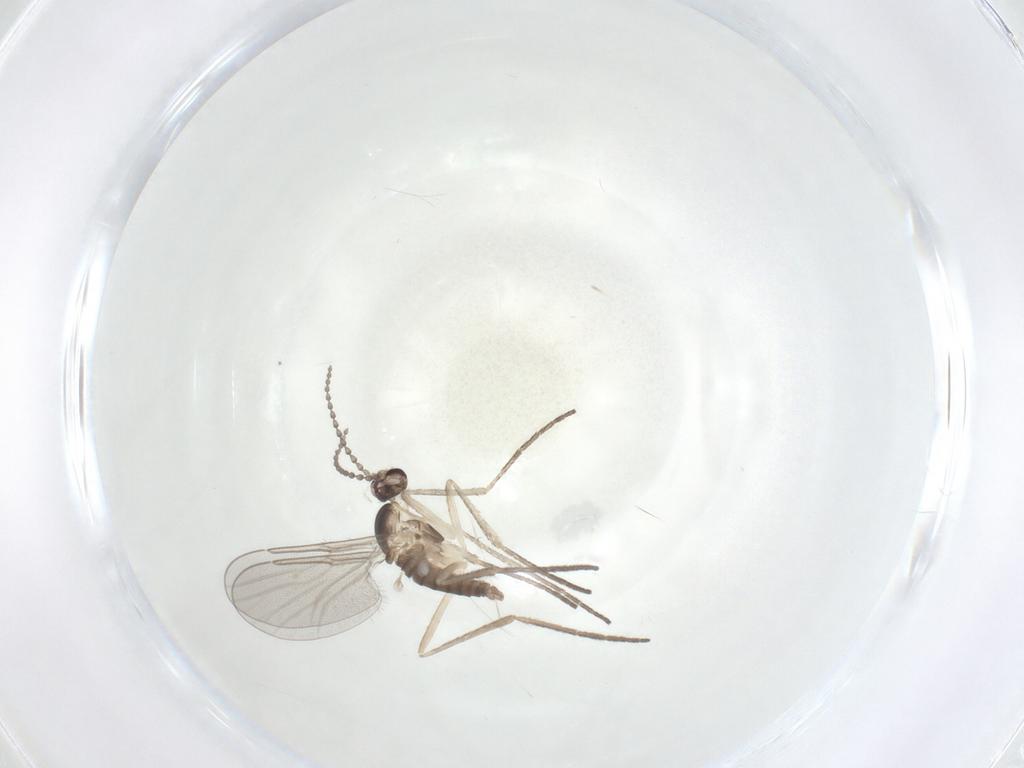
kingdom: Animalia
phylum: Arthropoda
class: Insecta
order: Diptera
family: Cecidomyiidae
